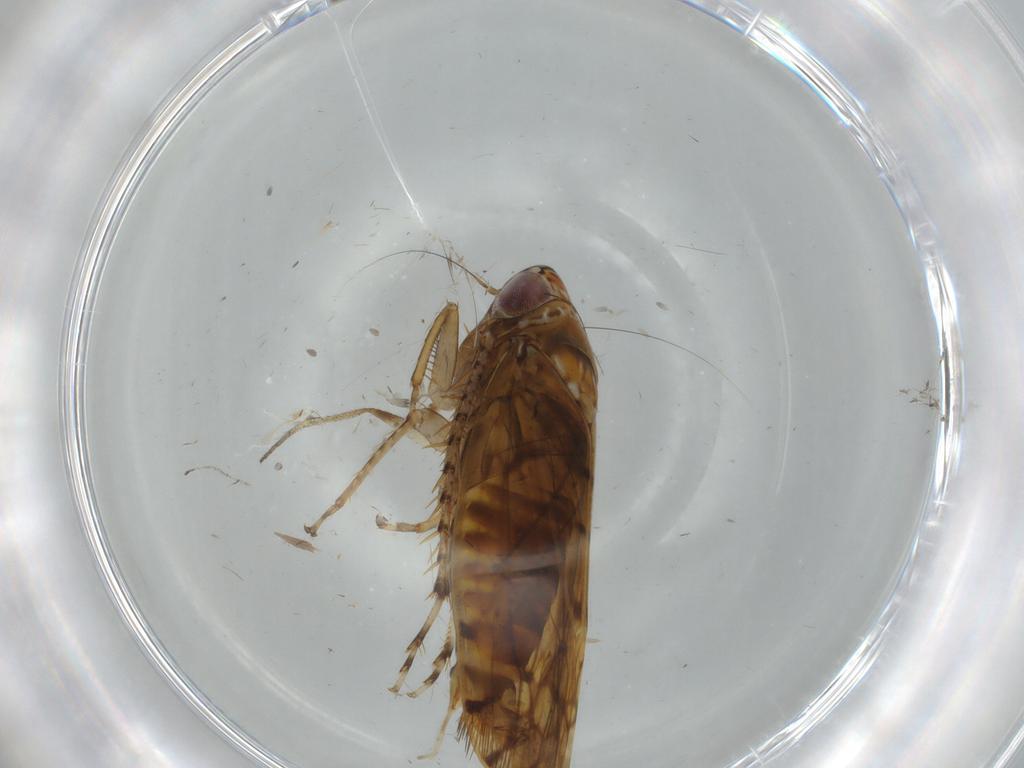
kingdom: Animalia
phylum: Arthropoda
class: Insecta
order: Hemiptera
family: Cicadellidae
